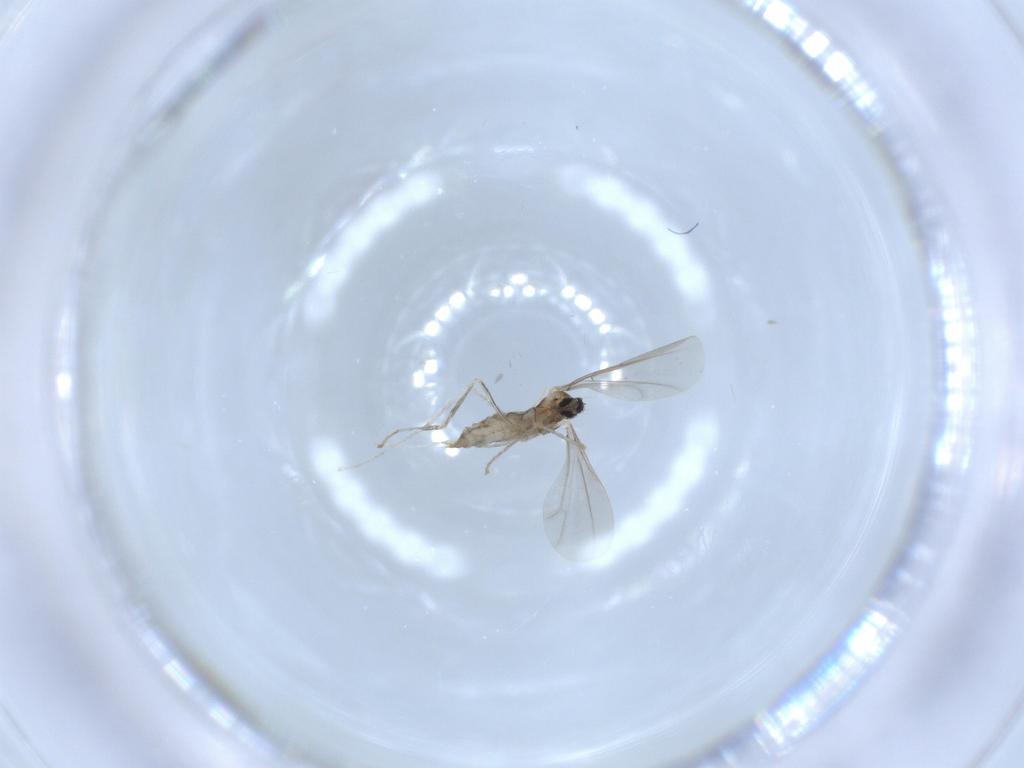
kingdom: Animalia
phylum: Arthropoda
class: Insecta
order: Diptera
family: Cecidomyiidae
